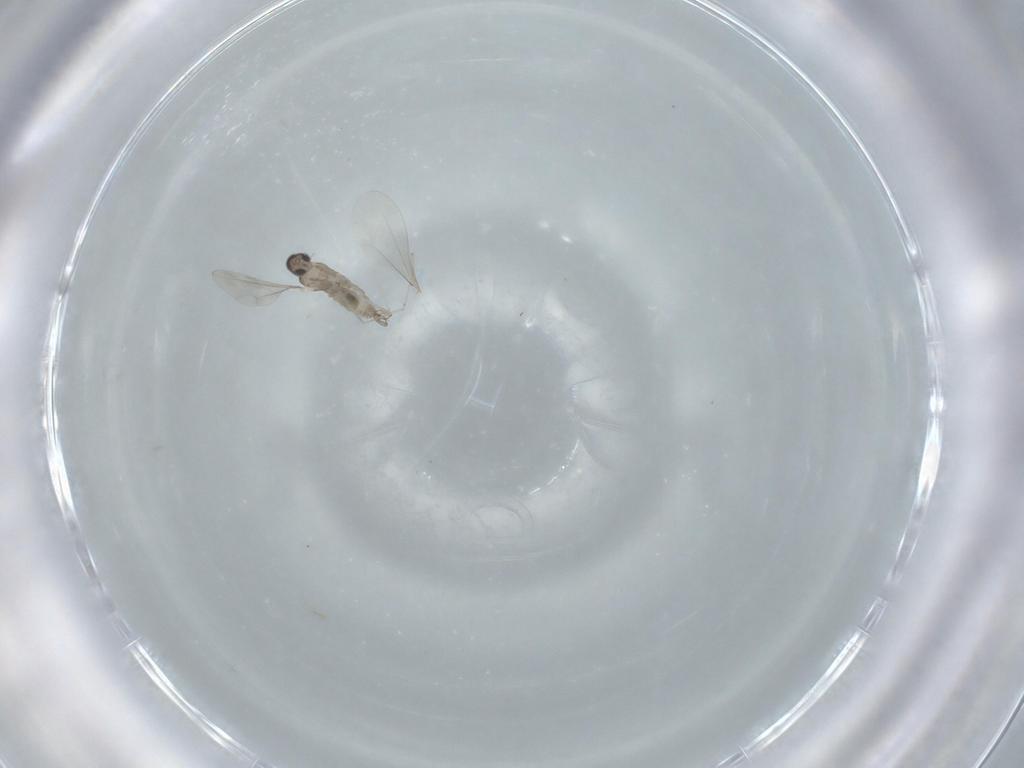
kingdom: Animalia
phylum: Arthropoda
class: Insecta
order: Diptera
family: Cecidomyiidae
